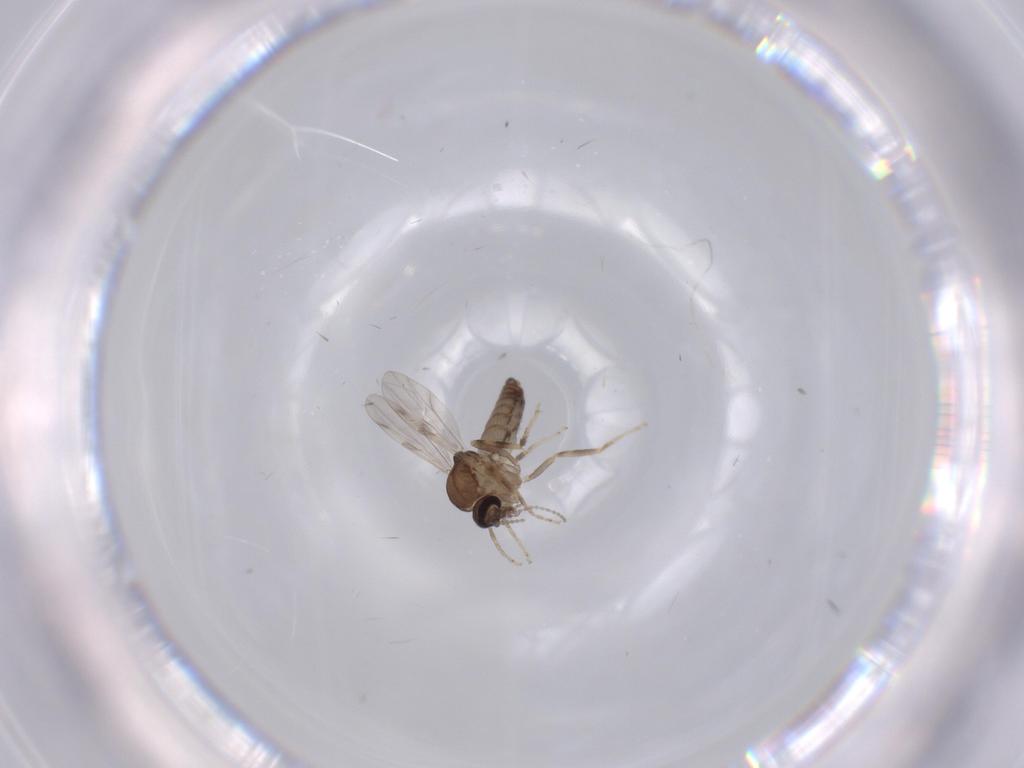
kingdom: Animalia
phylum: Arthropoda
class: Insecta
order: Diptera
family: Ceratopogonidae
